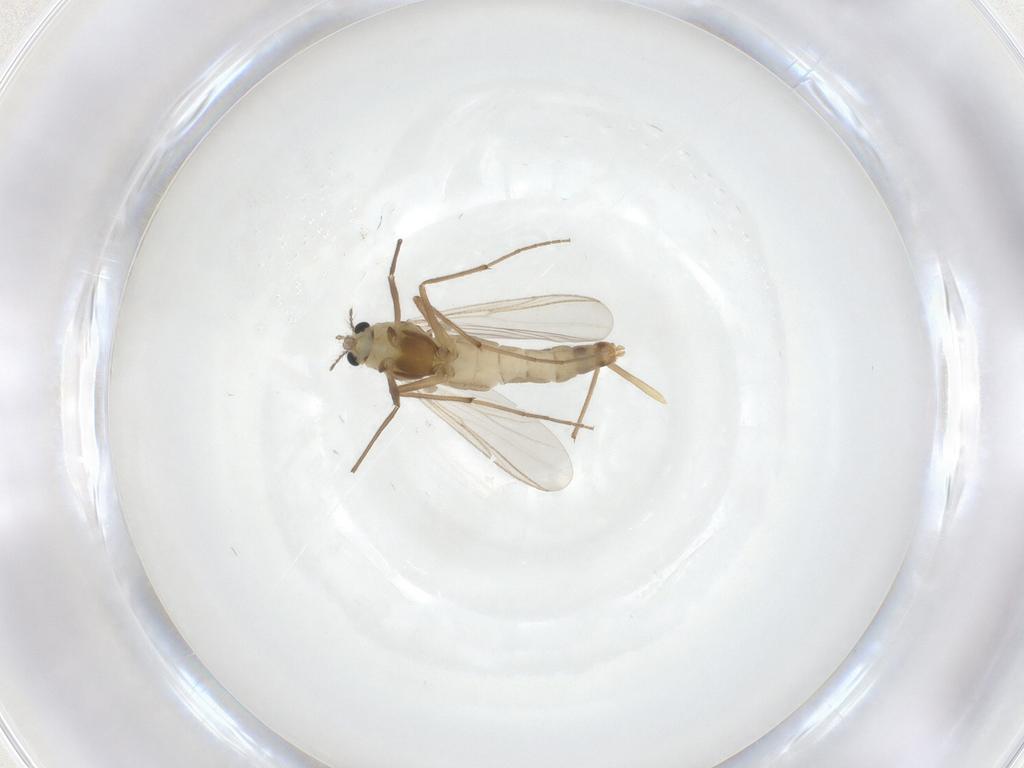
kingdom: Animalia
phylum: Arthropoda
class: Insecta
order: Diptera
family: Chironomidae
